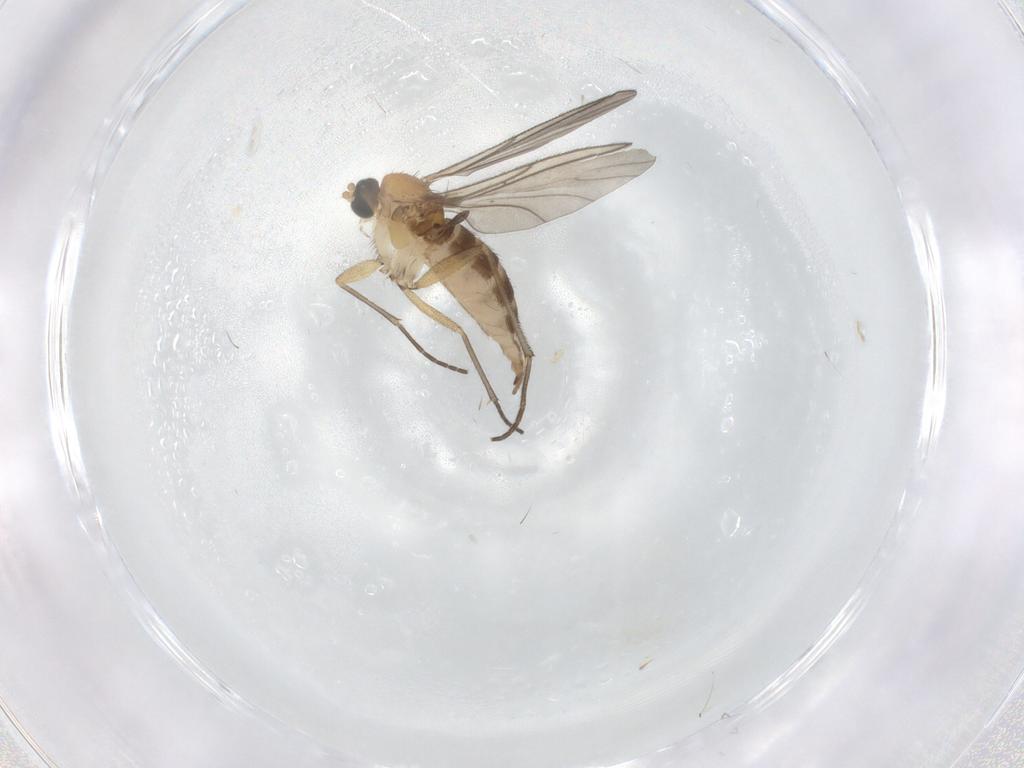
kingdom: Animalia
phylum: Arthropoda
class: Insecta
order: Diptera
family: Sciaridae
